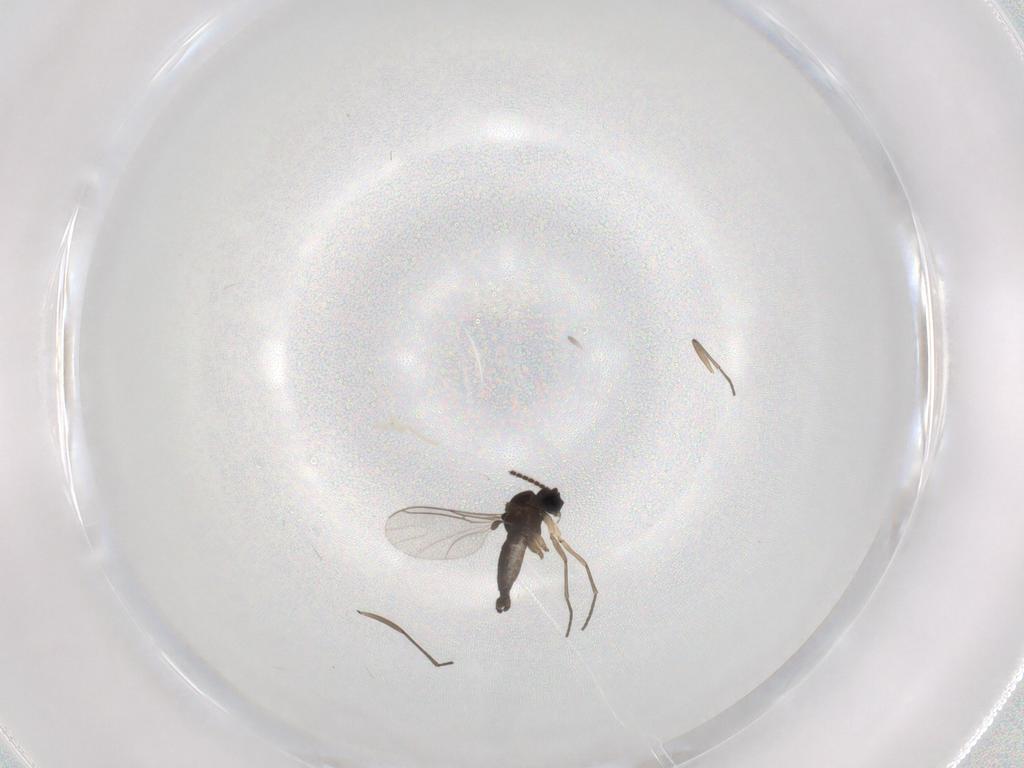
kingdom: Animalia
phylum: Arthropoda
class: Insecta
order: Diptera
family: Sciaridae
